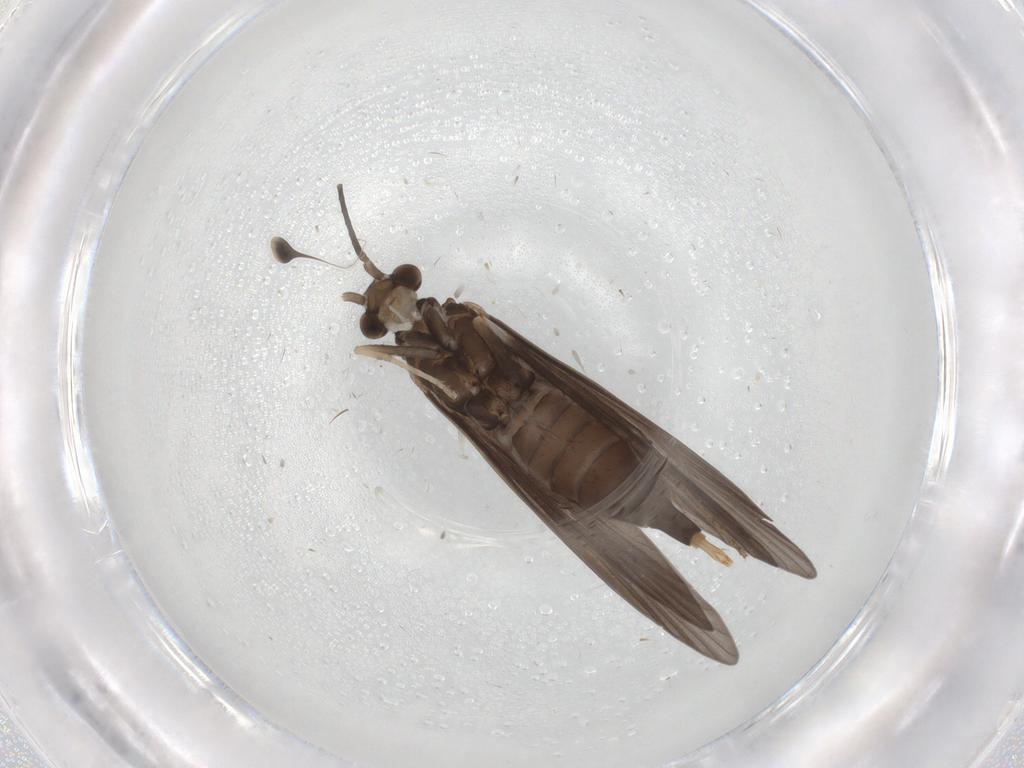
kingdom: Animalia
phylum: Arthropoda
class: Insecta
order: Trichoptera
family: Xiphocentronidae
